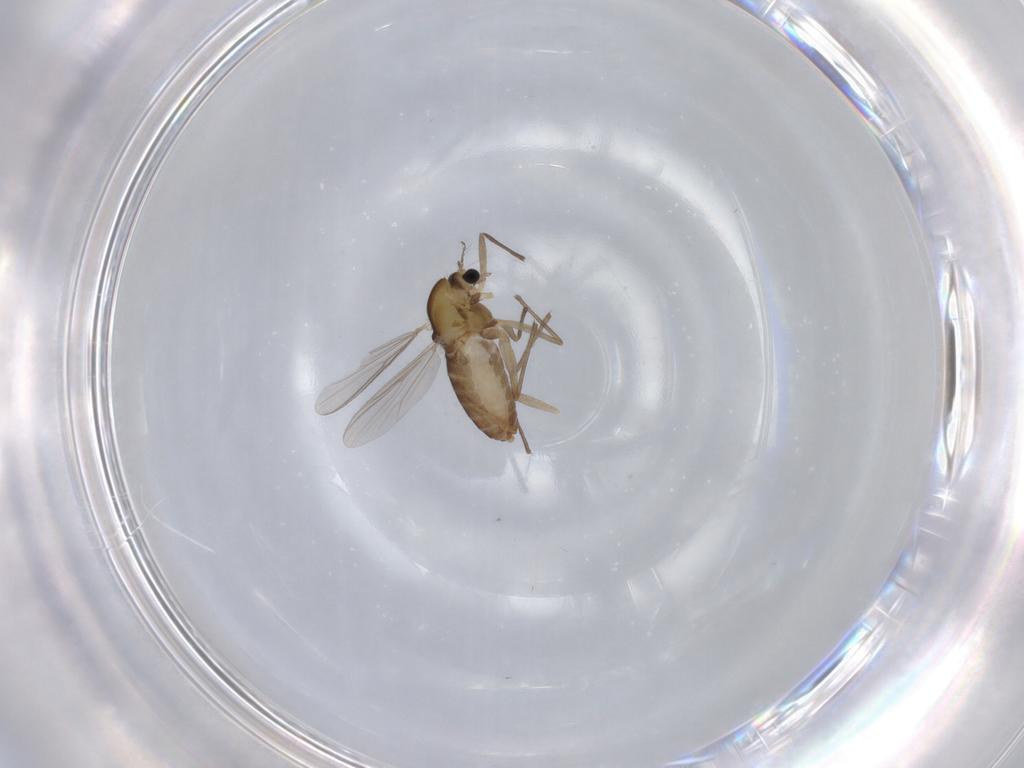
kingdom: Animalia
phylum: Arthropoda
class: Insecta
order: Diptera
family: Chironomidae
